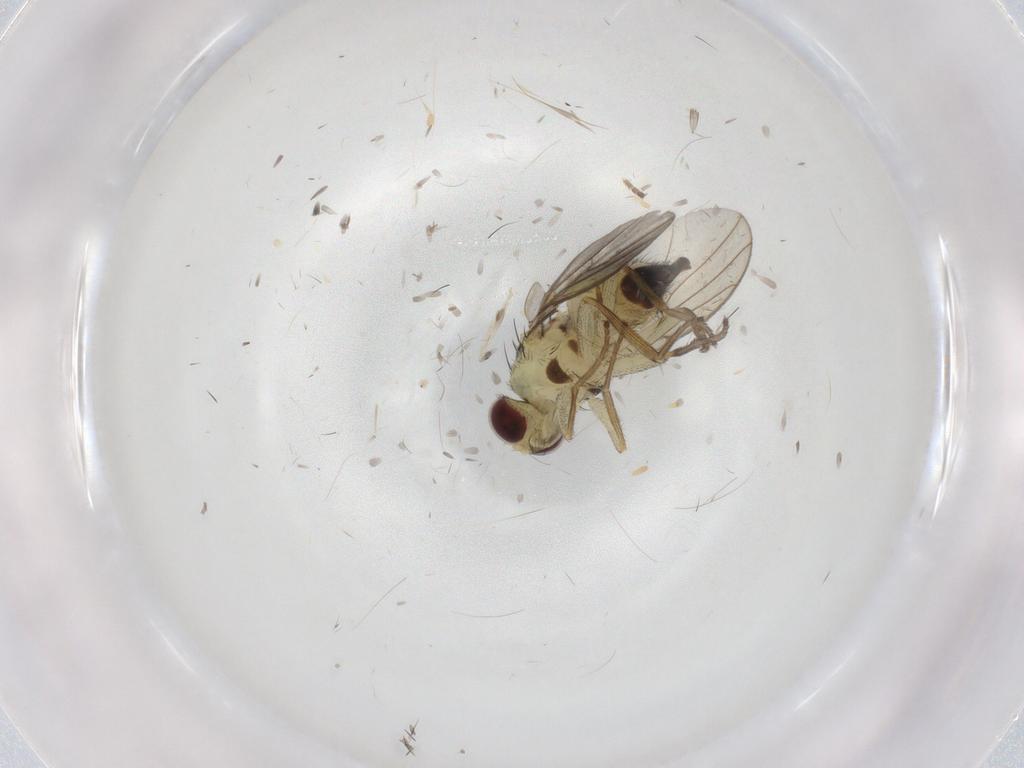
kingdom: Animalia
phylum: Arthropoda
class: Insecta
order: Diptera
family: Agromyzidae
